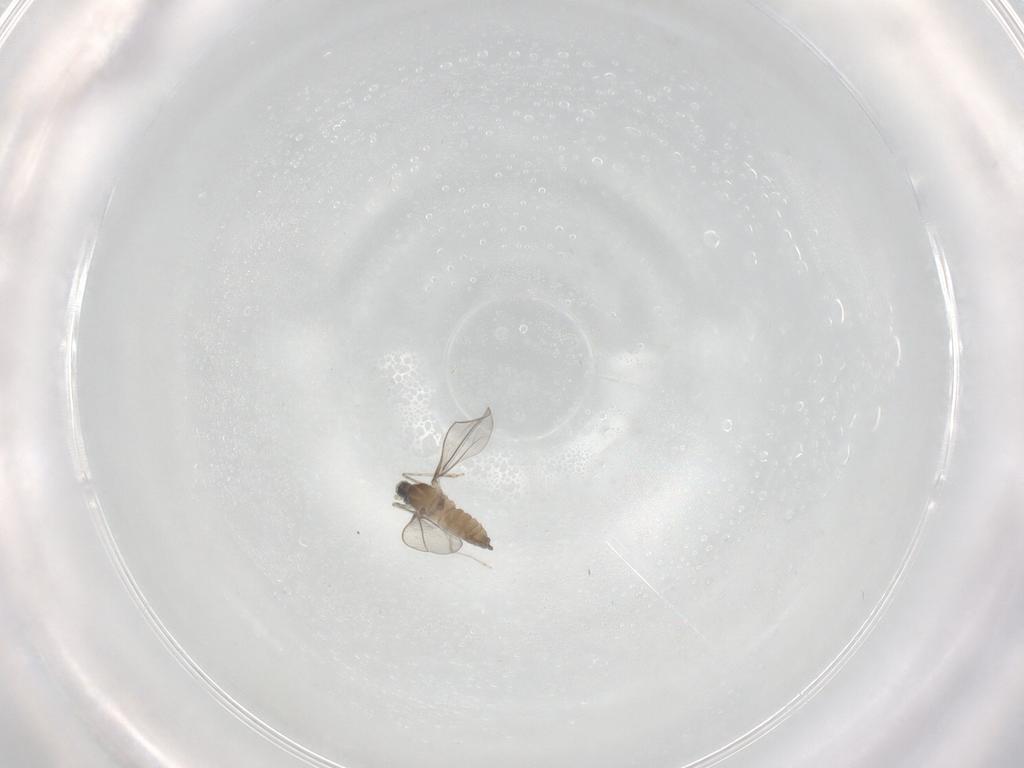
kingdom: Animalia
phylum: Arthropoda
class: Insecta
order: Diptera
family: Cecidomyiidae
